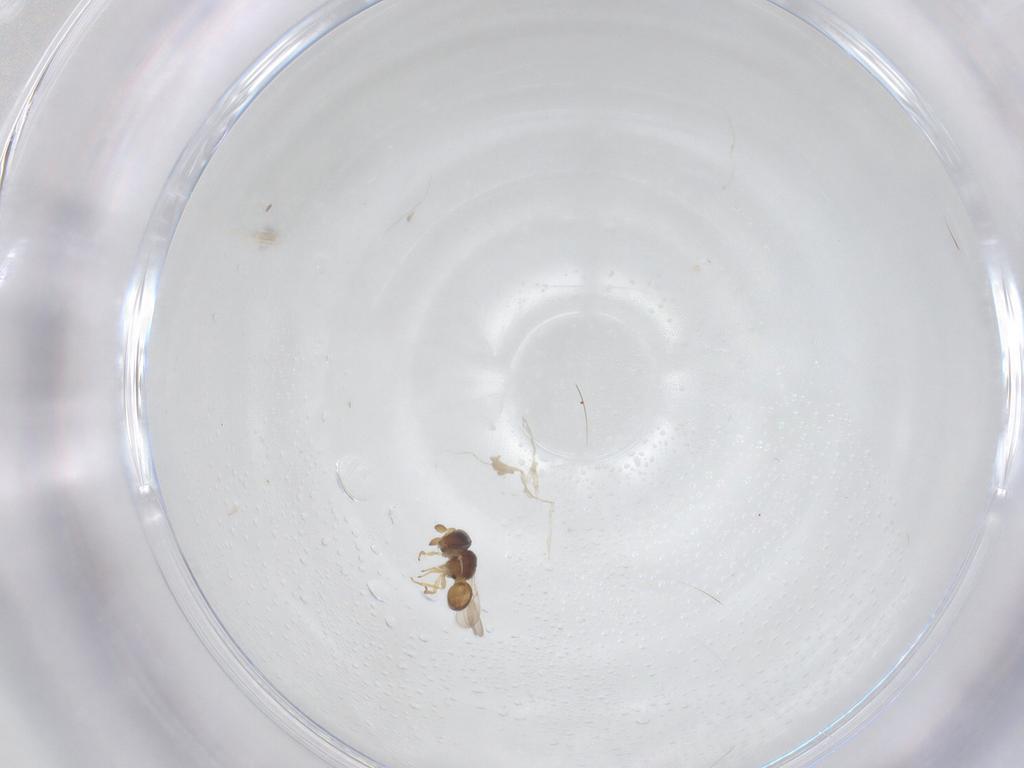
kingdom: Animalia
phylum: Arthropoda
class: Insecta
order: Hymenoptera
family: Scelionidae
